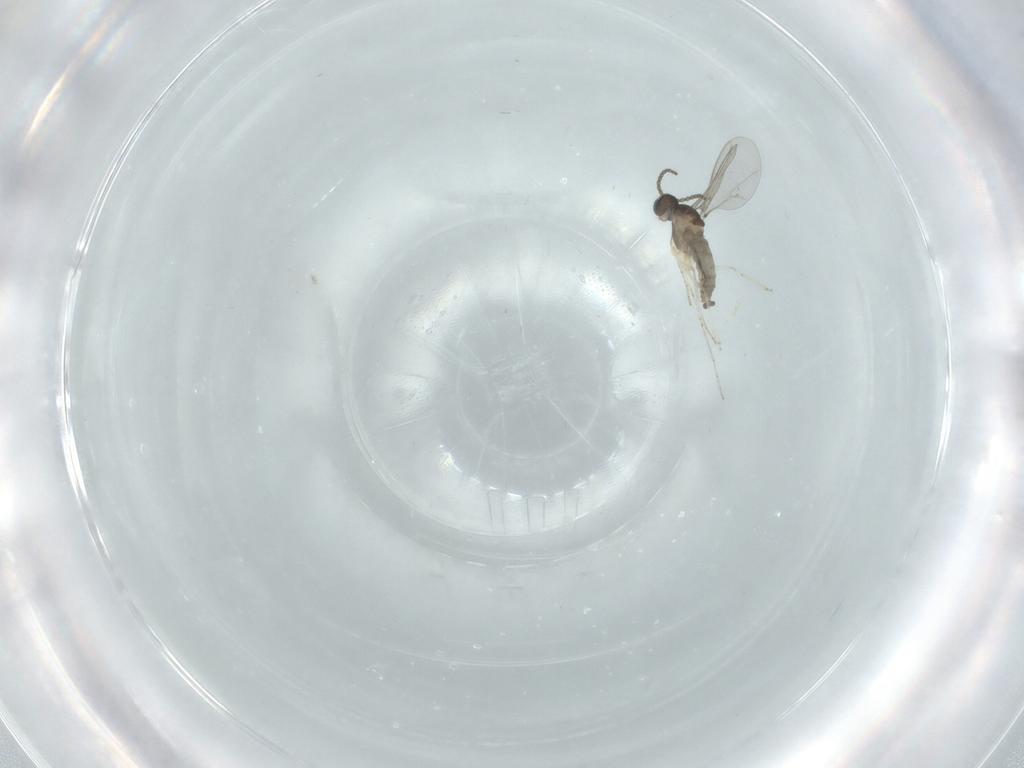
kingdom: Animalia
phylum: Arthropoda
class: Insecta
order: Diptera
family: Cecidomyiidae
